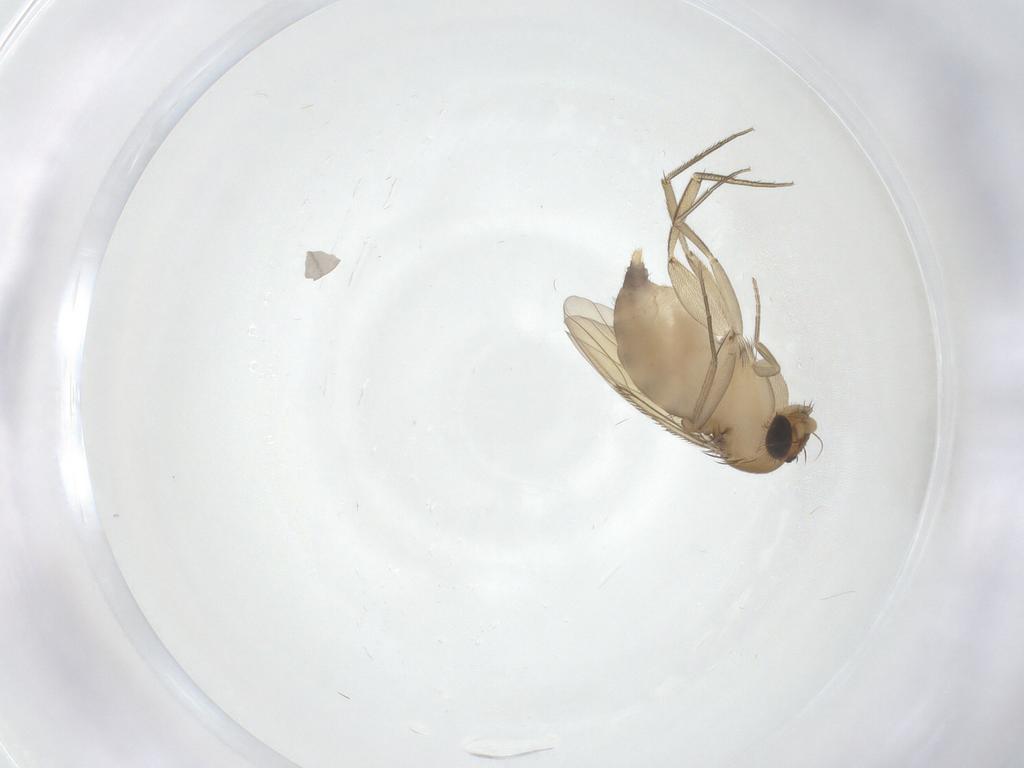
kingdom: Animalia
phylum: Arthropoda
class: Insecta
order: Diptera
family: Phoridae
